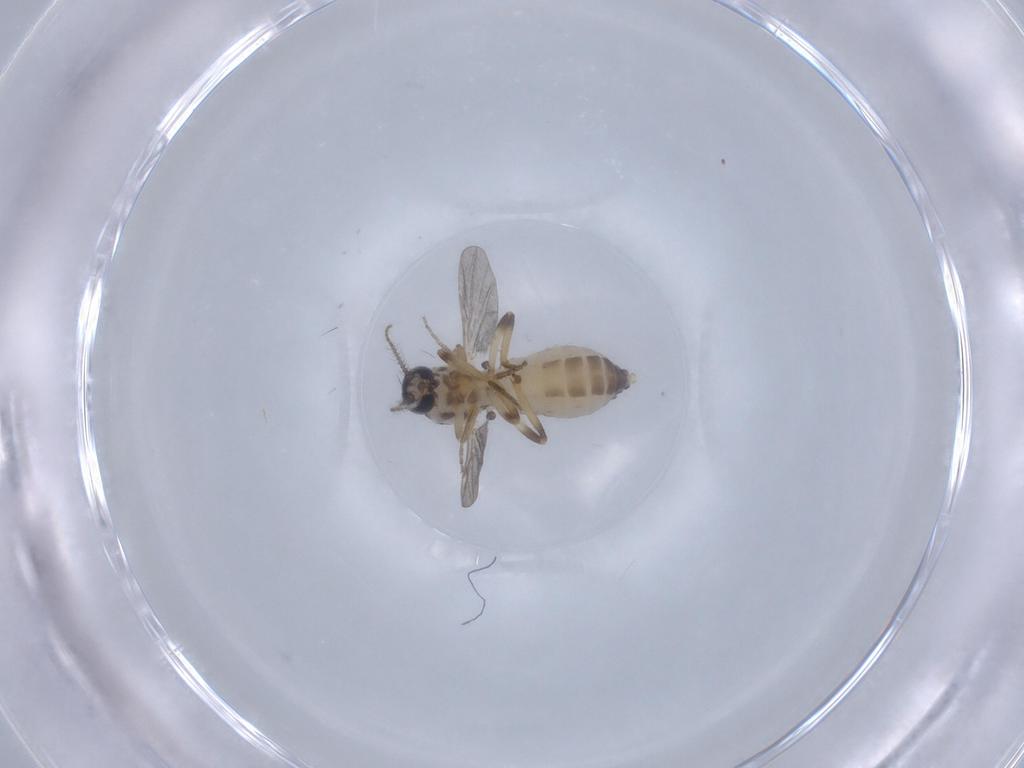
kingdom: Animalia
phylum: Arthropoda
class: Insecta
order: Diptera
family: Ceratopogonidae
